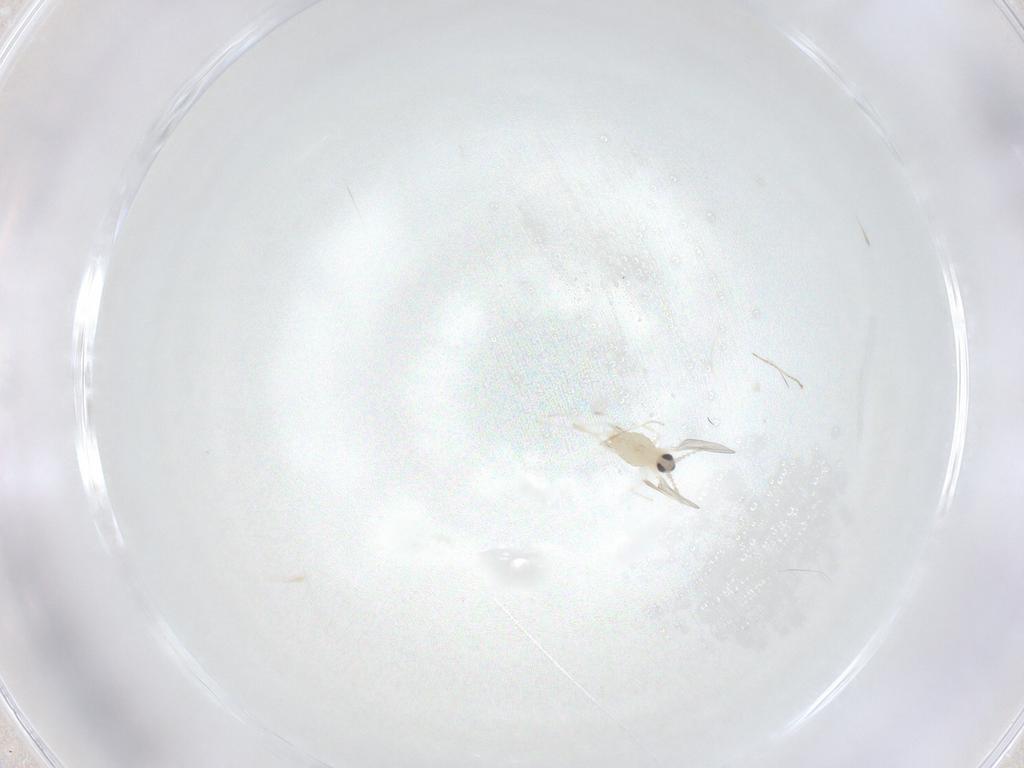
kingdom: Animalia
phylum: Arthropoda
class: Insecta
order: Diptera
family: Cecidomyiidae
